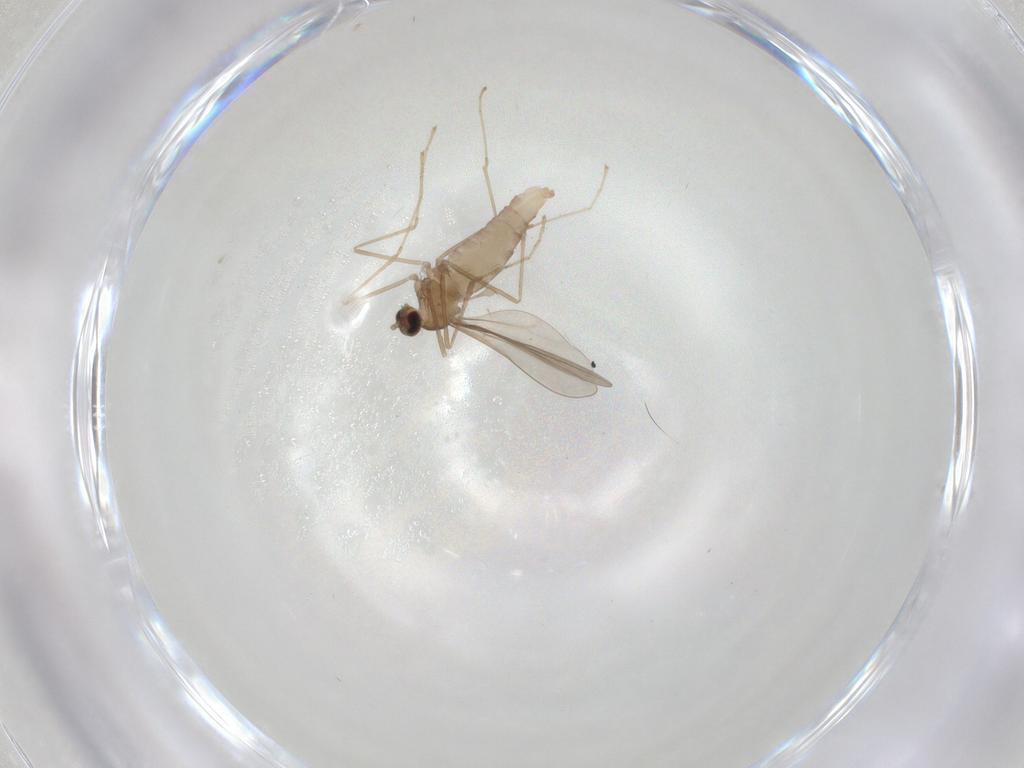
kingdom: Animalia
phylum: Arthropoda
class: Insecta
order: Diptera
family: Cecidomyiidae
